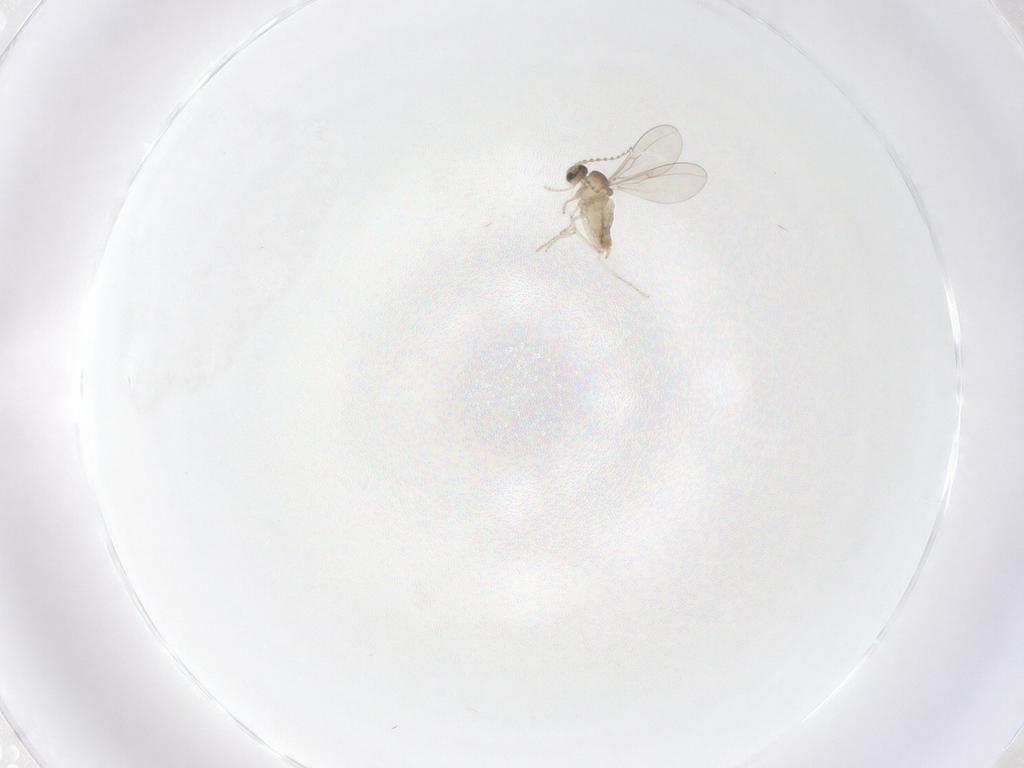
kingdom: Animalia
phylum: Arthropoda
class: Insecta
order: Diptera
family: Cecidomyiidae
